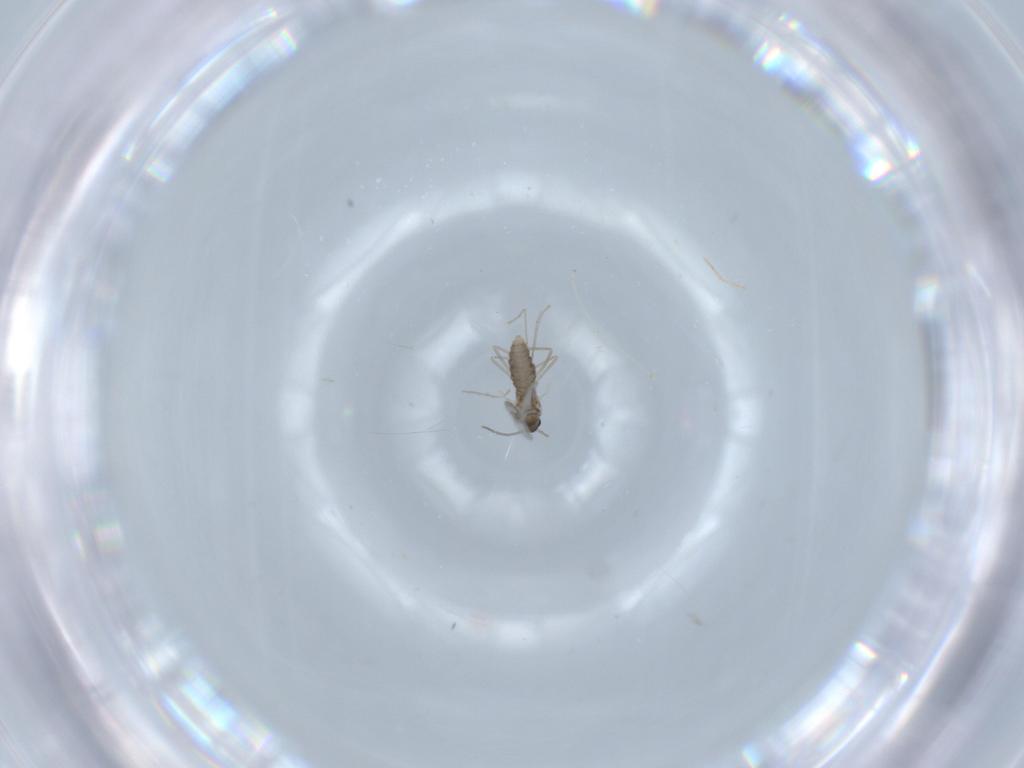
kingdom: Animalia
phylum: Arthropoda
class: Insecta
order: Diptera
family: Cecidomyiidae
